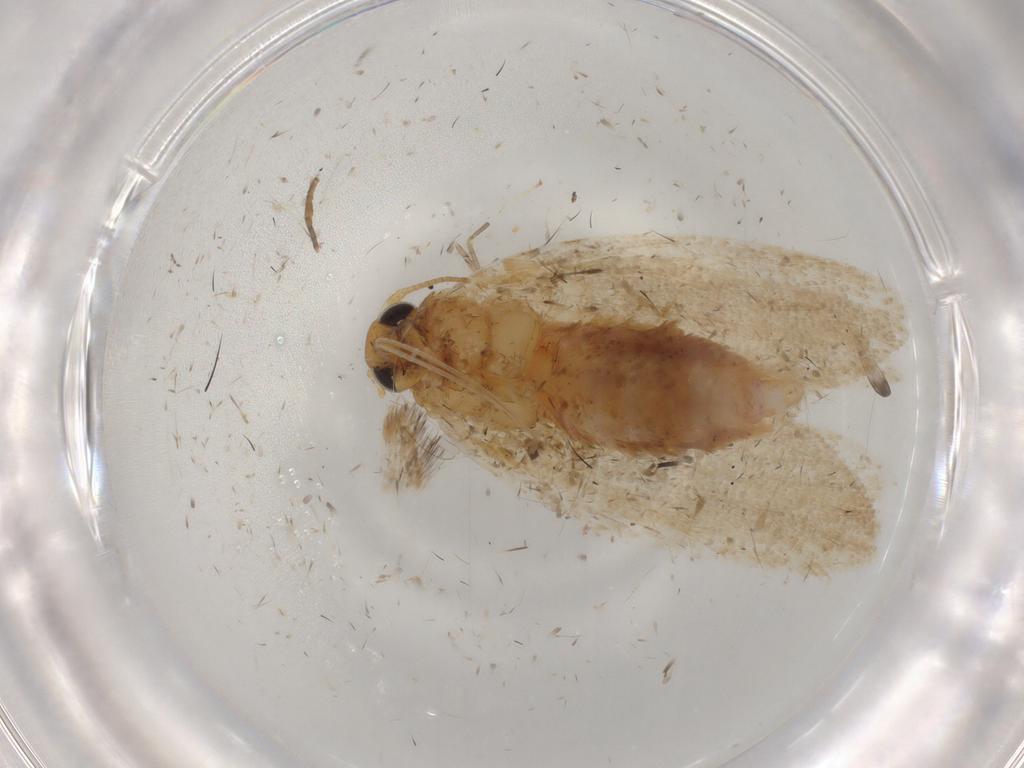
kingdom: Animalia
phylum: Arthropoda
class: Insecta
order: Lepidoptera
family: Gelechiidae
